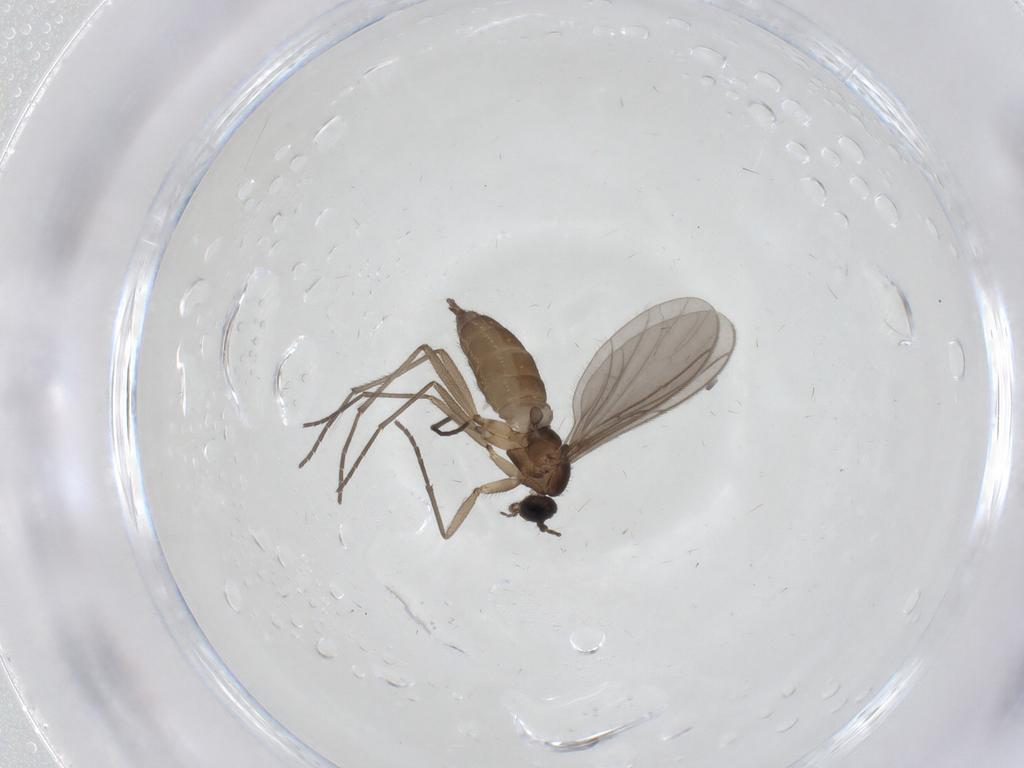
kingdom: Animalia
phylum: Arthropoda
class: Insecta
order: Diptera
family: Sciaridae
